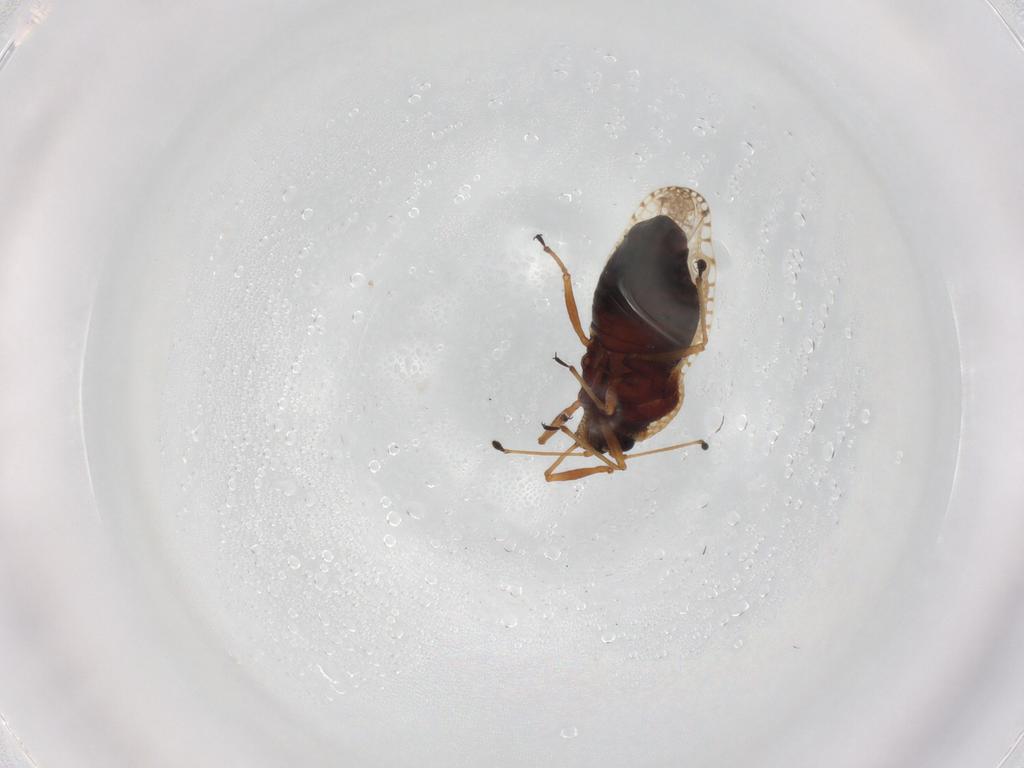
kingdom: Animalia
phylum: Arthropoda
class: Insecta
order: Hemiptera
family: Tingidae
